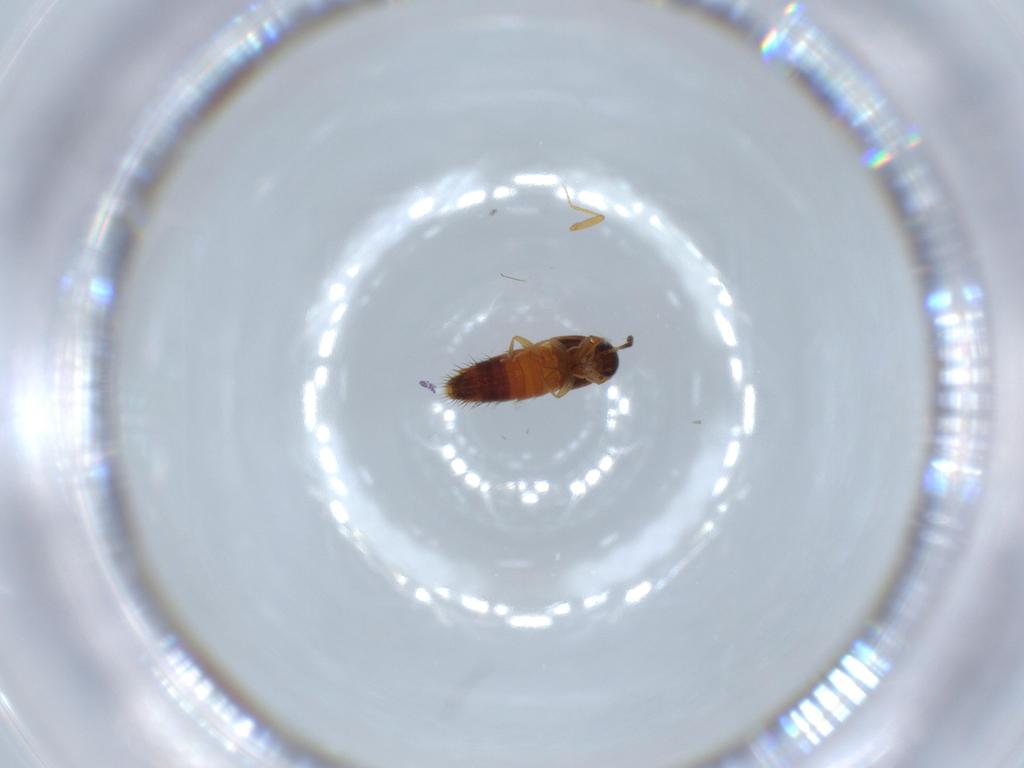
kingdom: Animalia
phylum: Arthropoda
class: Insecta
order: Coleoptera
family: Staphylinidae
